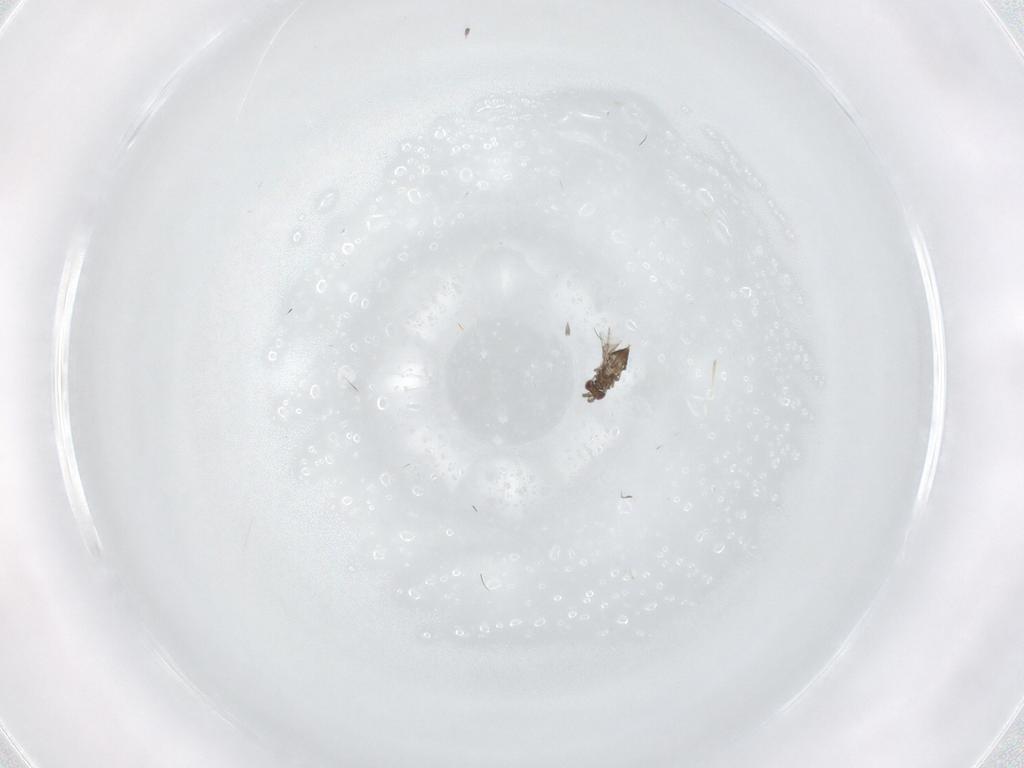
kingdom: Animalia
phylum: Arthropoda
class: Insecta
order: Hymenoptera
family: Trichogrammatidae
